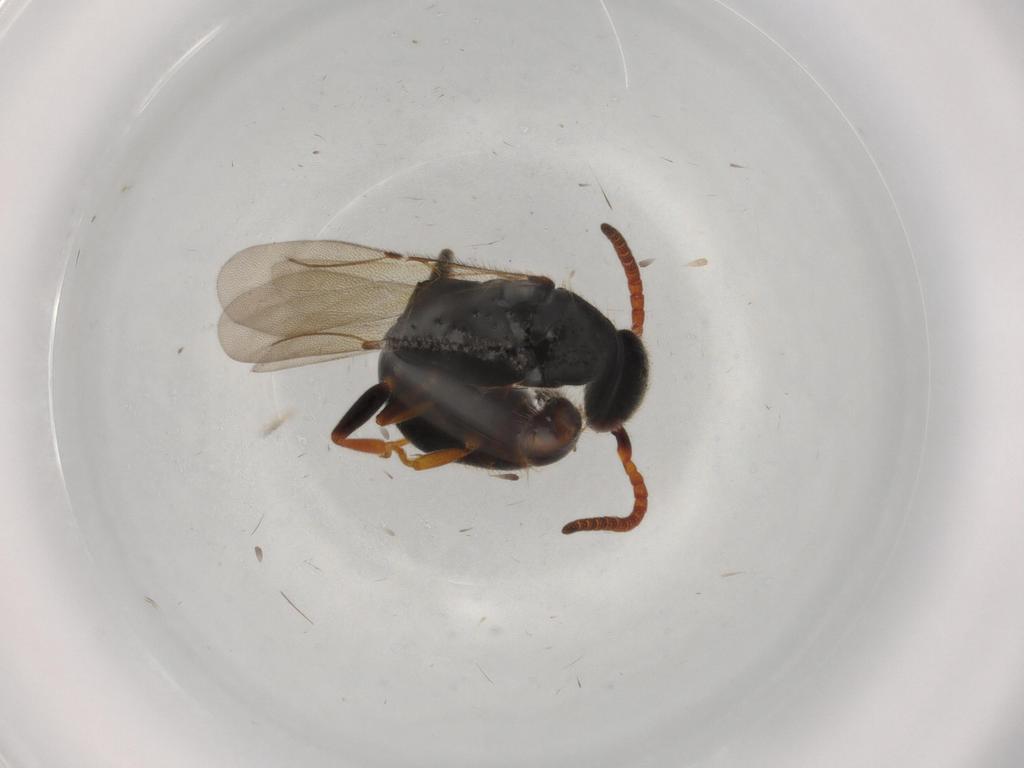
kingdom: Animalia
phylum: Arthropoda
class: Insecta
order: Hymenoptera
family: Bethylidae
